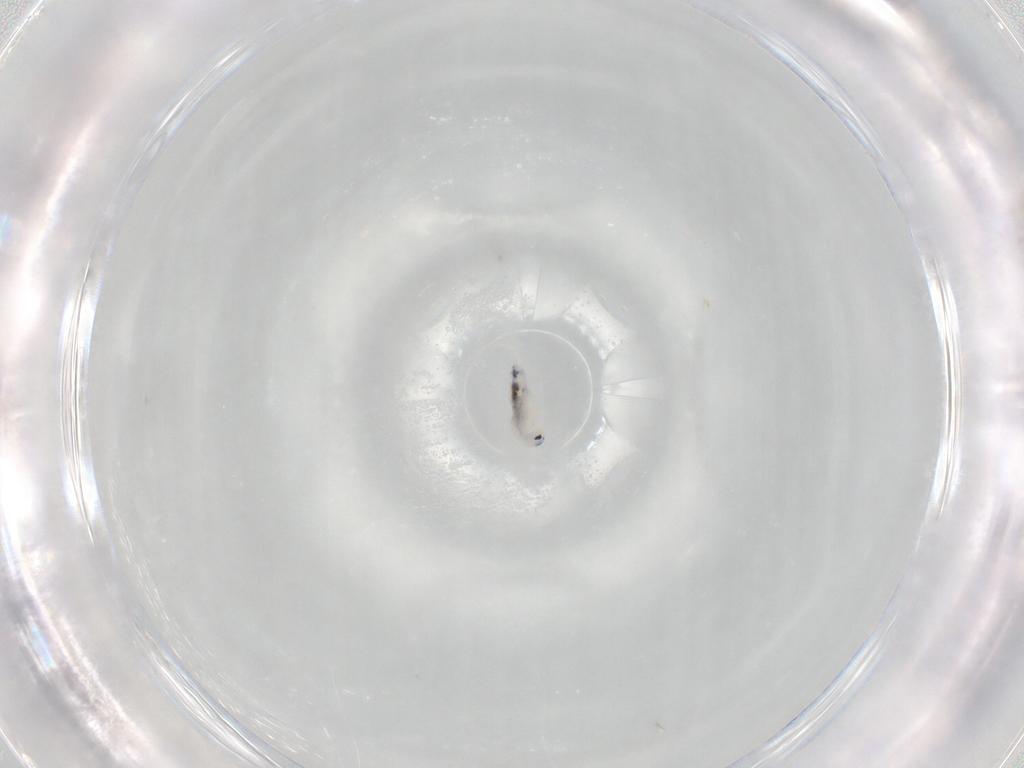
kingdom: Animalia
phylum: Arthropoda
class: Collembola
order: Entomobryomorpha
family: Entomobryidae
